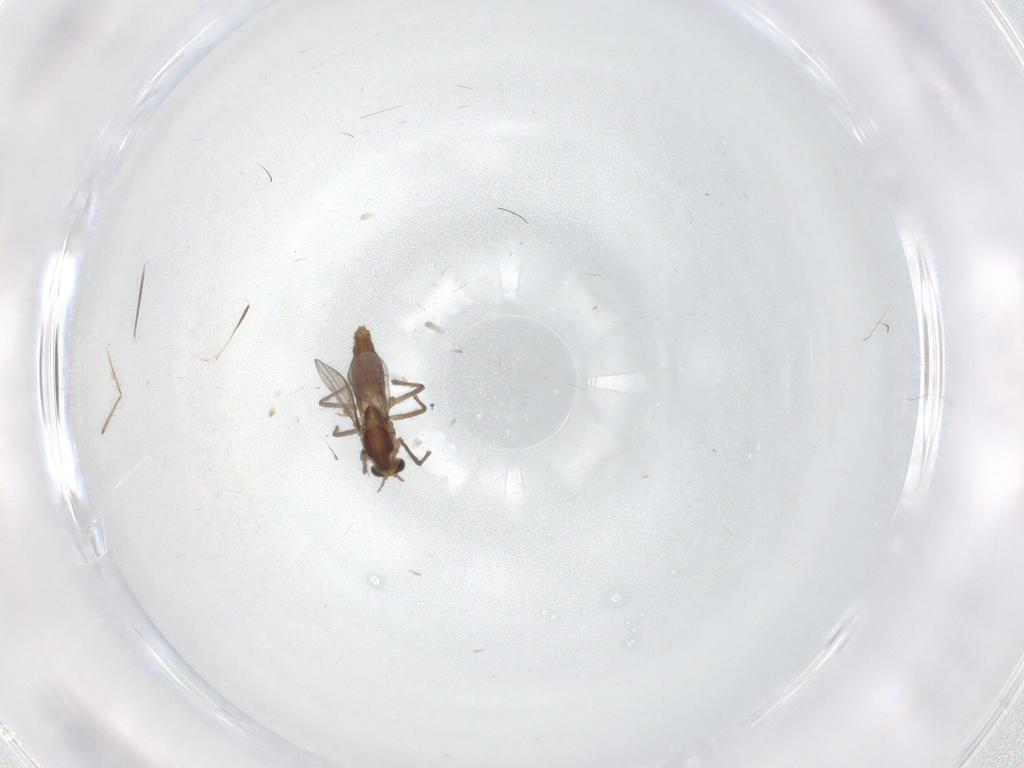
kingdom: Animalia
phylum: Arthropoda
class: Insecta
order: Diptera
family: Chironomidae
